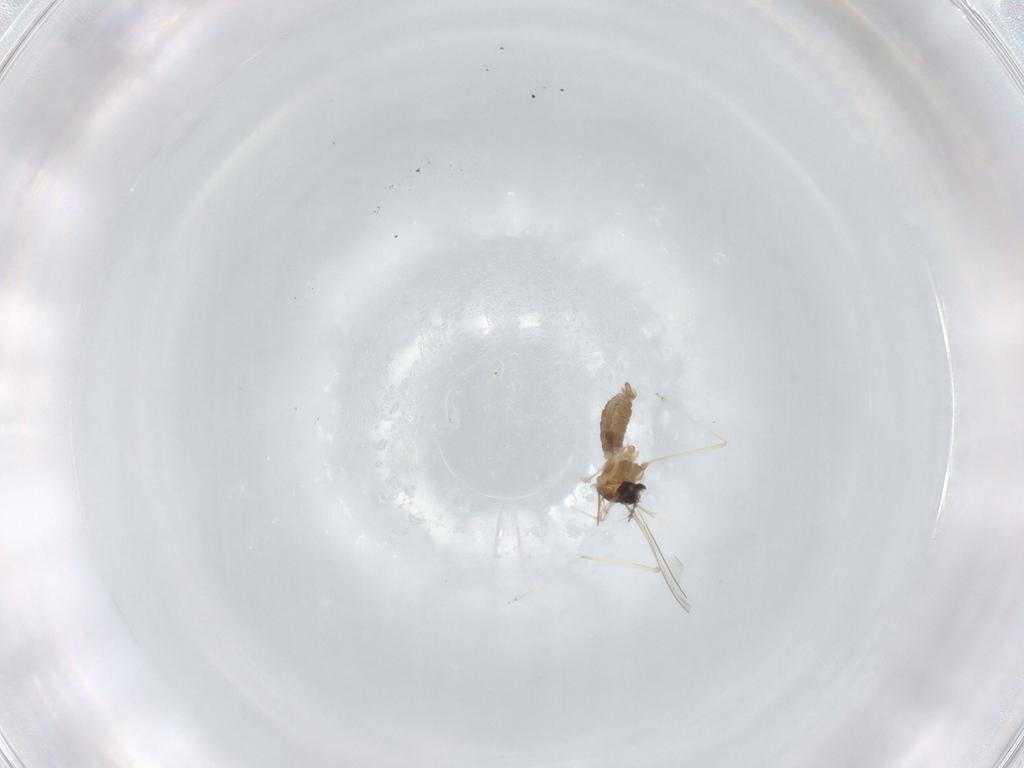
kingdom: Animalia
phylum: Arthropoda
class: Insecta
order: Diptera
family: Cecidomyiidae
